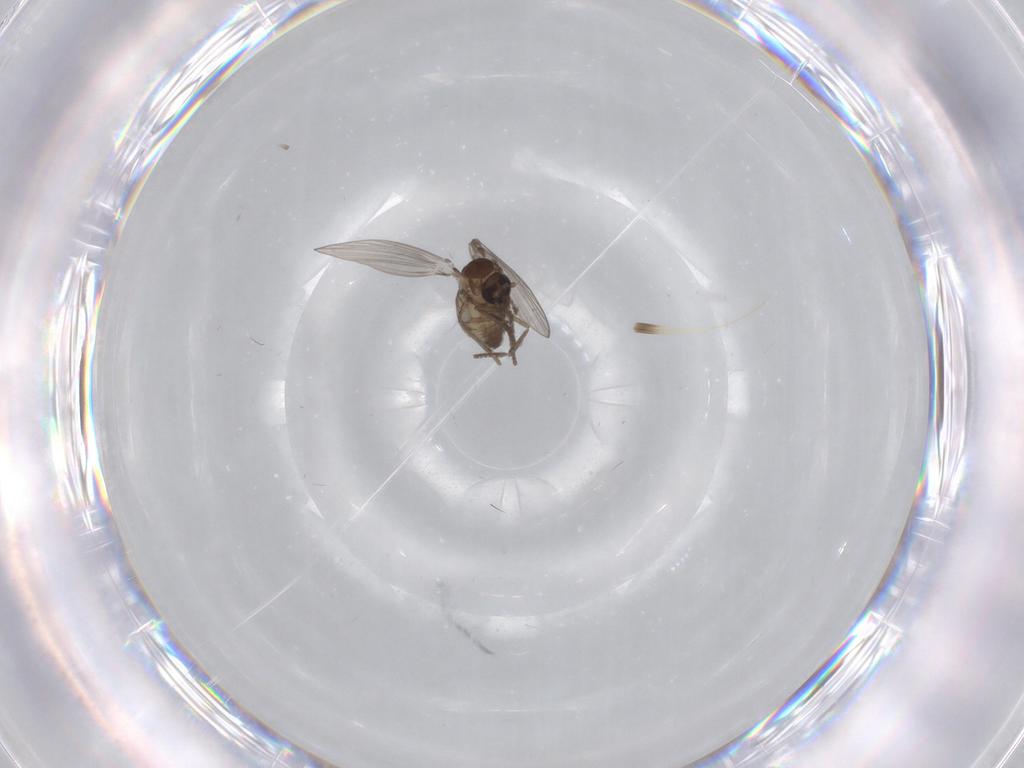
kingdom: Animalia
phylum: Arthropoda
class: Insecta
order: Diptera
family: Psychodidae
